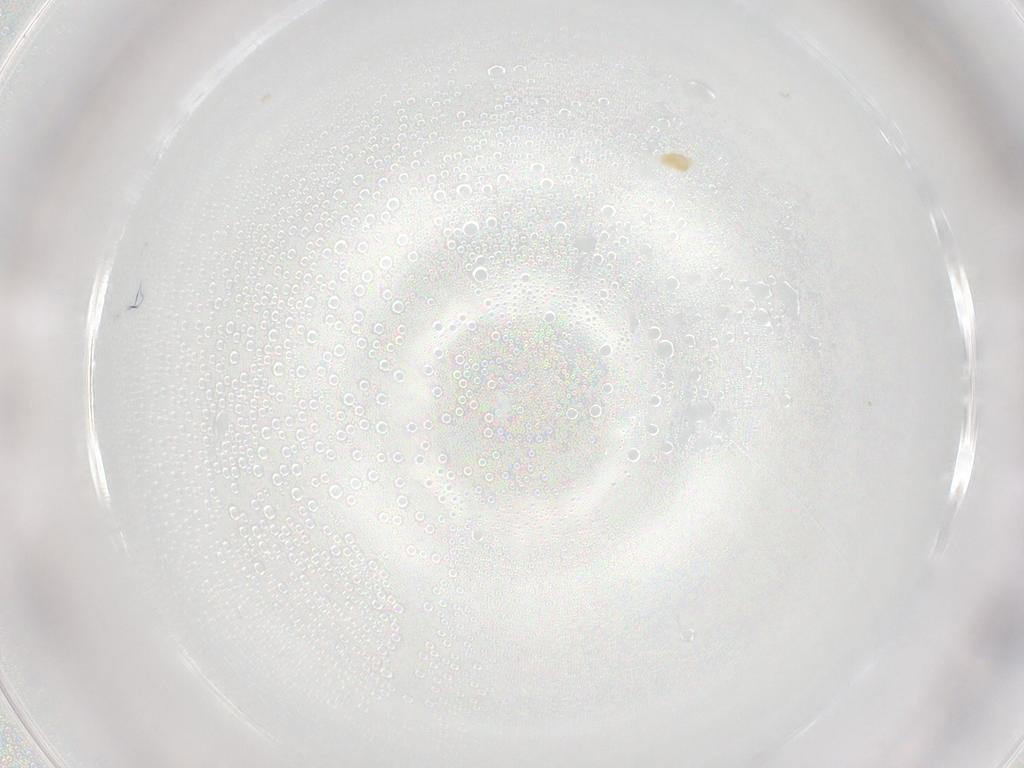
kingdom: Animalia
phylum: Arthropoda
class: Arachnida
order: Trombidiformes
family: Eupodidae
